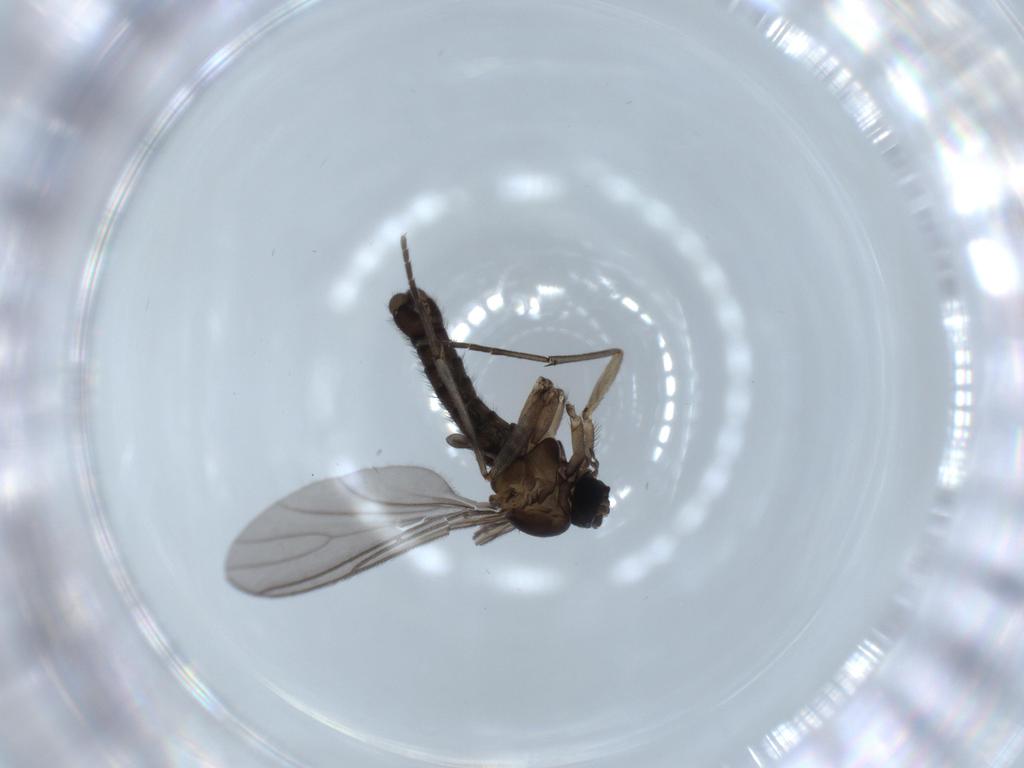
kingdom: Animalia
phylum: Arthropoda
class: Insecta
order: Diptera
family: Sciaridae
